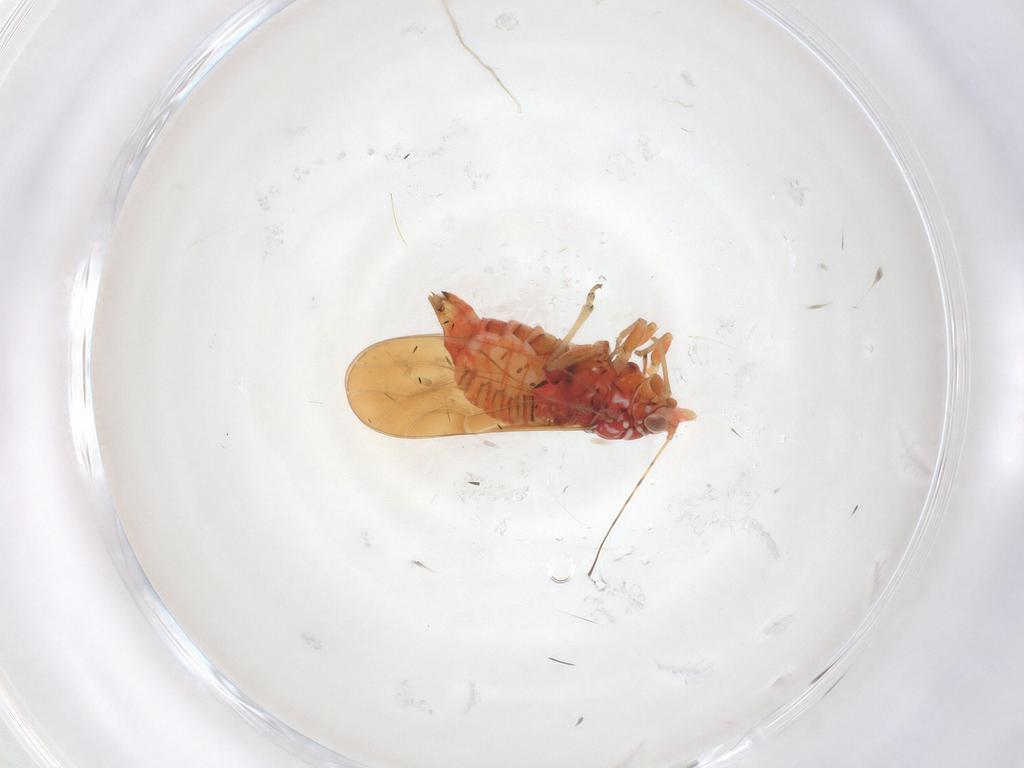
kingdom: Animalia
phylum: Arthropoda
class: Insecta
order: Hemiptera
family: Psyllidae
